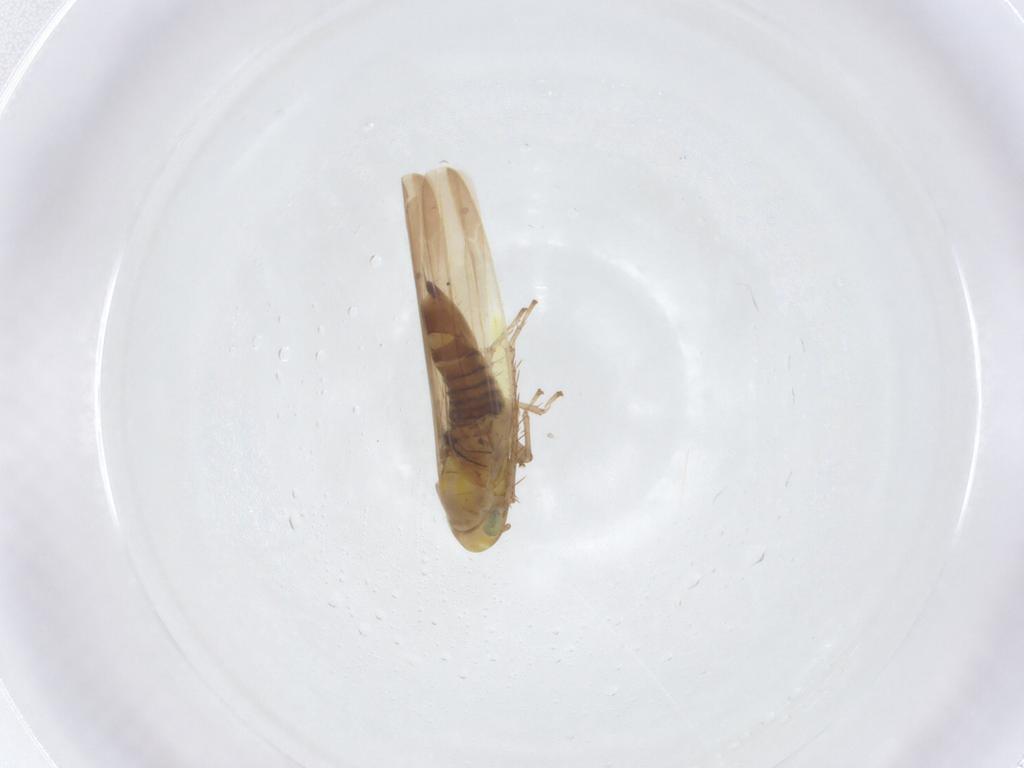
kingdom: Animalia
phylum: Arthropoda
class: Insecta
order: Hemiptera
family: Cicadellidae
